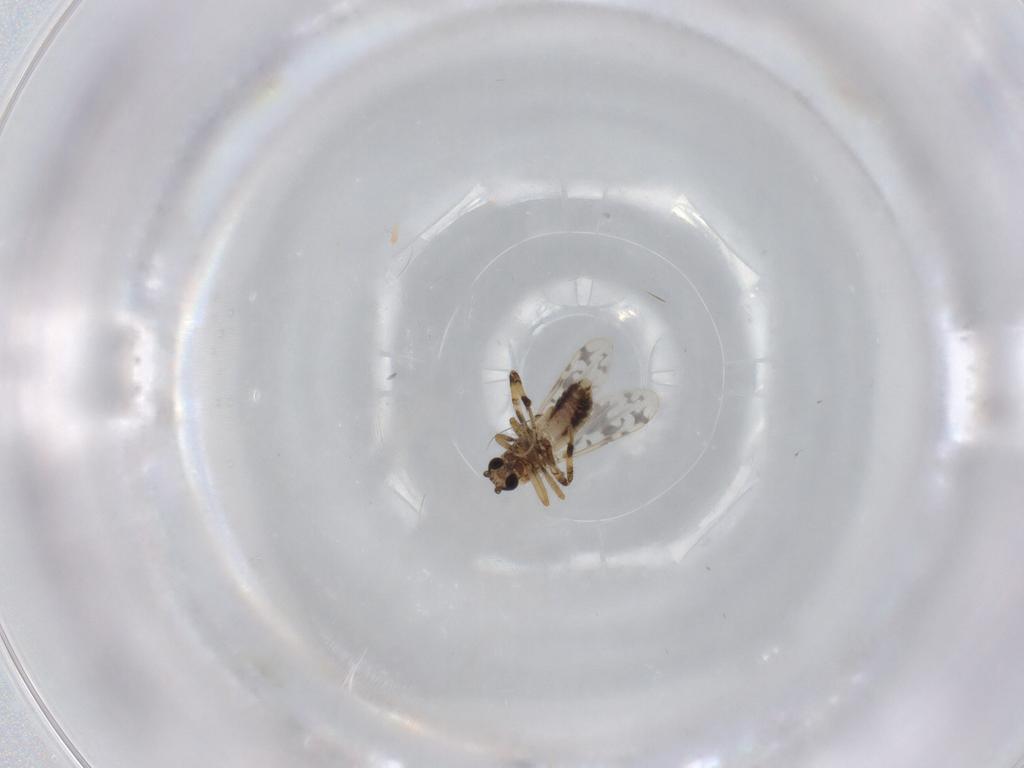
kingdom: Animalia
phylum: Arthropoda
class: Insecta
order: Diptera
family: Ceratopogonidae
